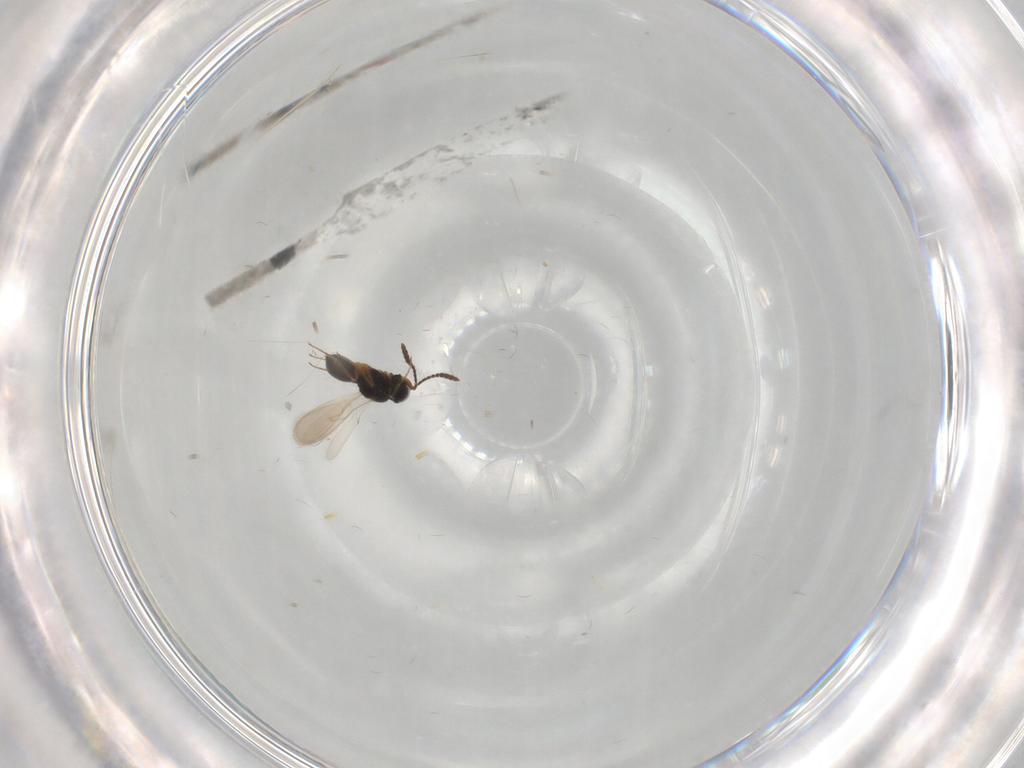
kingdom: Animalia
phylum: Arthropoda
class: Insecta
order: Hymenoptera
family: Scelionidae
